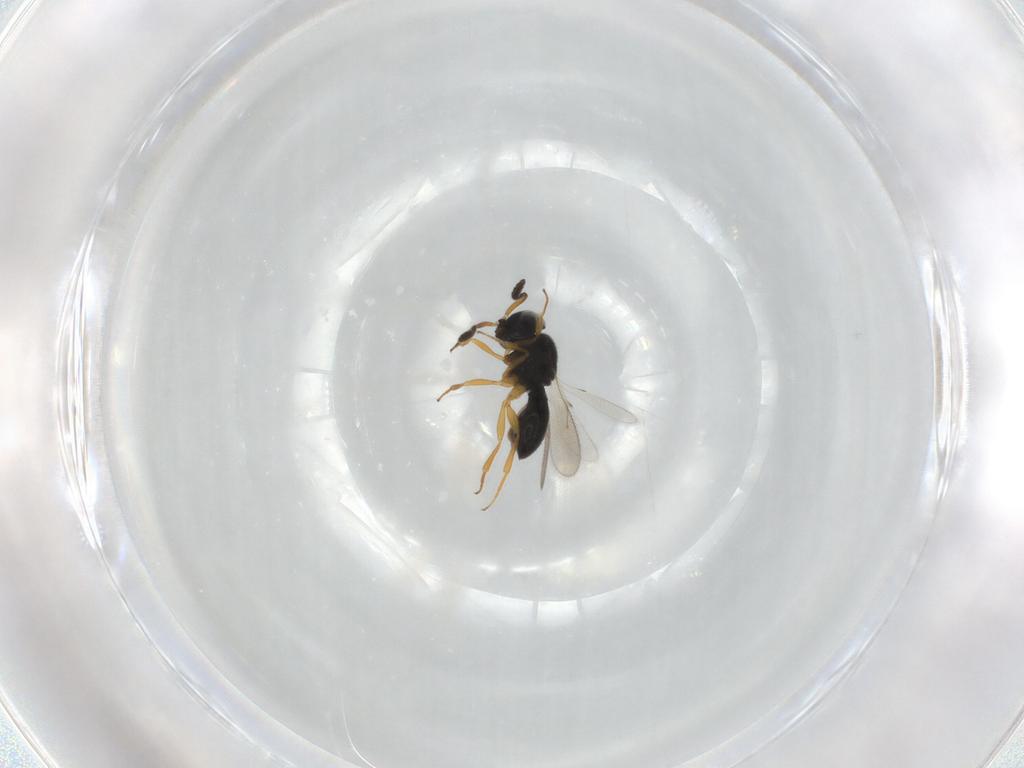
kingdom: Animalia
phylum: Arthropoda
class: Insecta
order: Hymenoptera
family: Scelionidae
